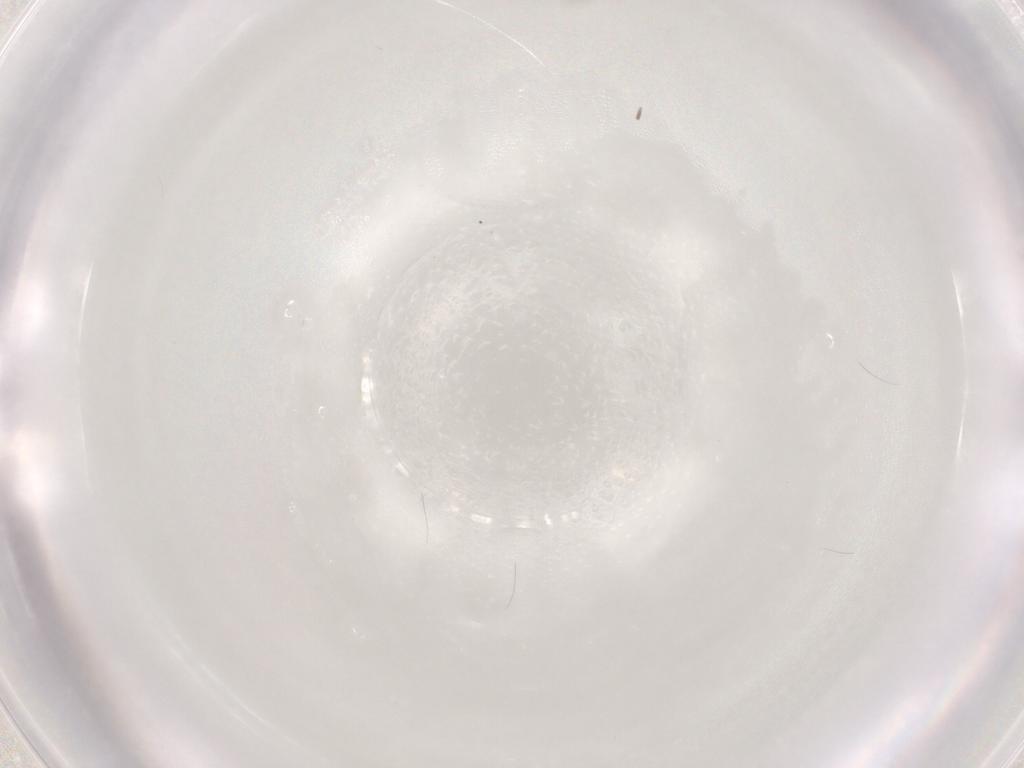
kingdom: Animalia
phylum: Arthropoda
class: Insecta
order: Diptera
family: Psychodidae
